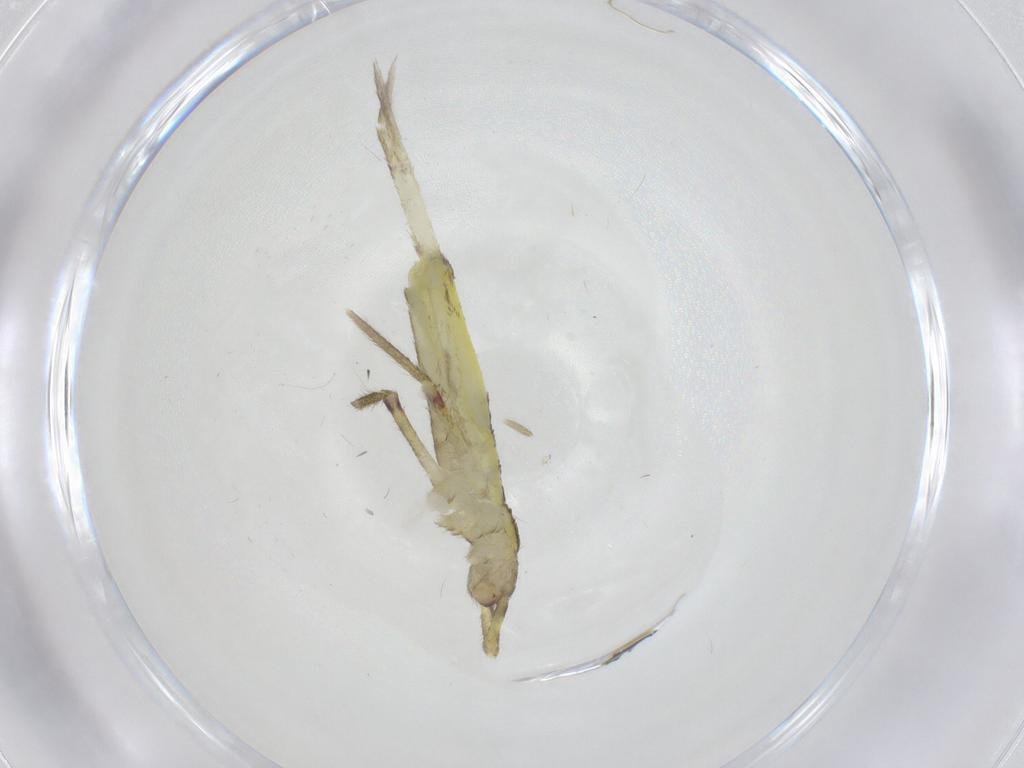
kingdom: Animalia
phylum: Arthropoda
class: Collembola
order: Entomobryomorpha
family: Entomobryidae
